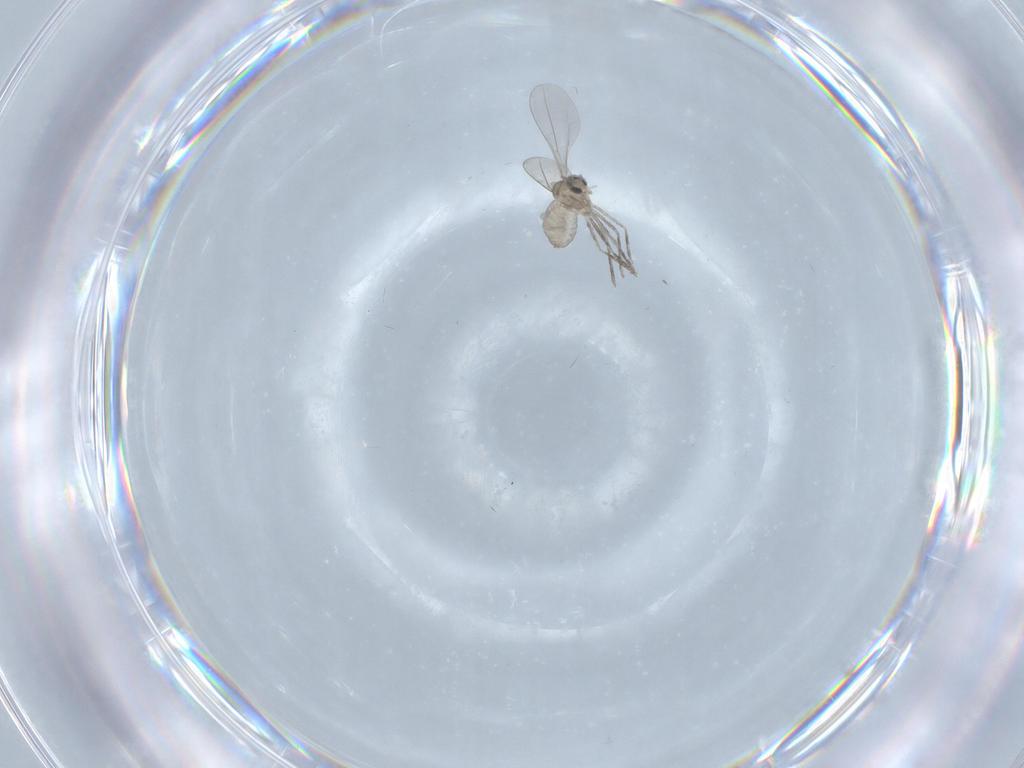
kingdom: Animalia
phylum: Arthropoda
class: Insecta
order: Diptera
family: Cecidomyiidae
